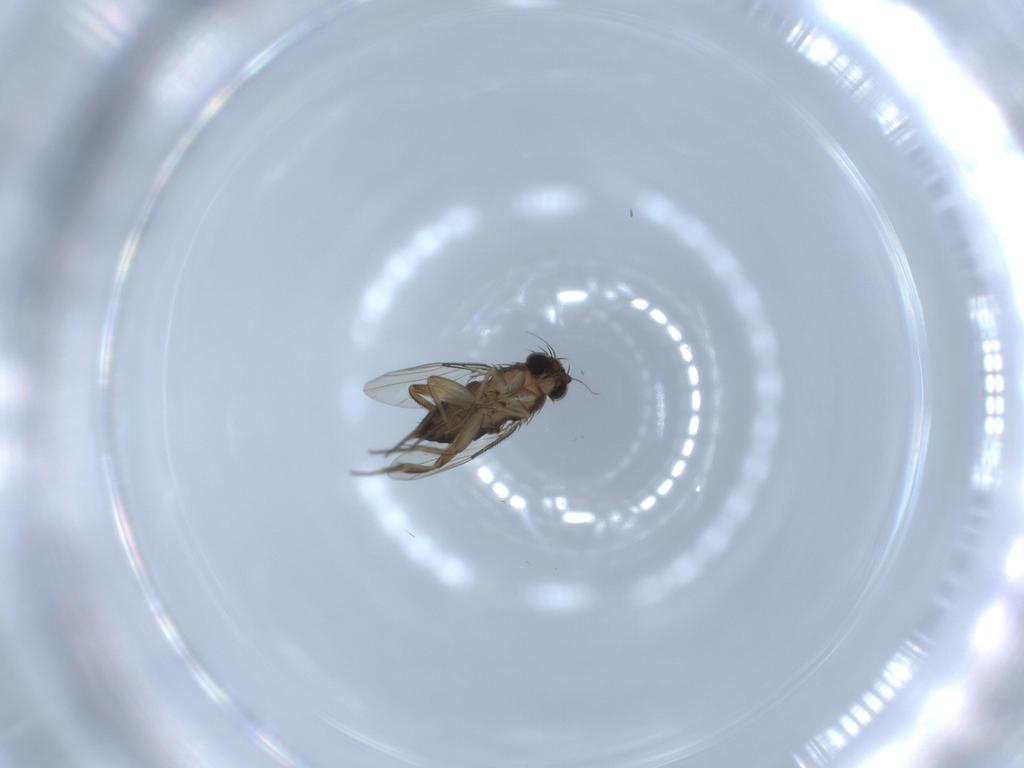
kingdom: Animalia
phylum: Arthropoda
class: Insecta
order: Diptera
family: Phoridae
